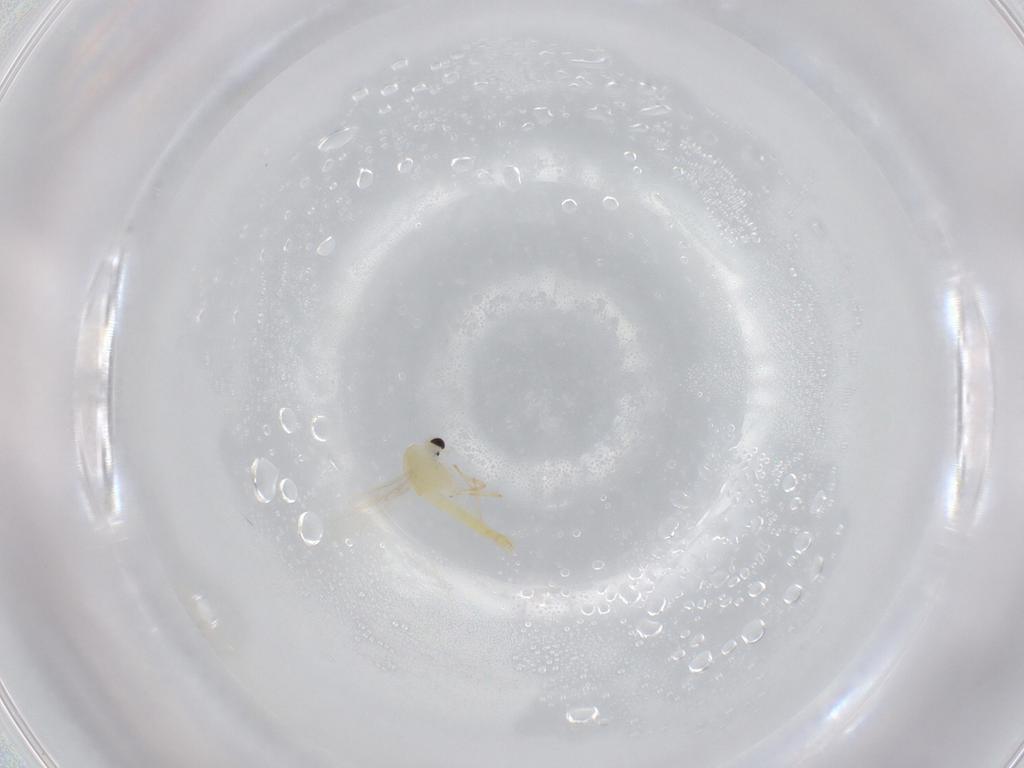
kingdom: Animalia
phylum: Arthropoda
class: Insecta
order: Diptera
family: Chironomidae
